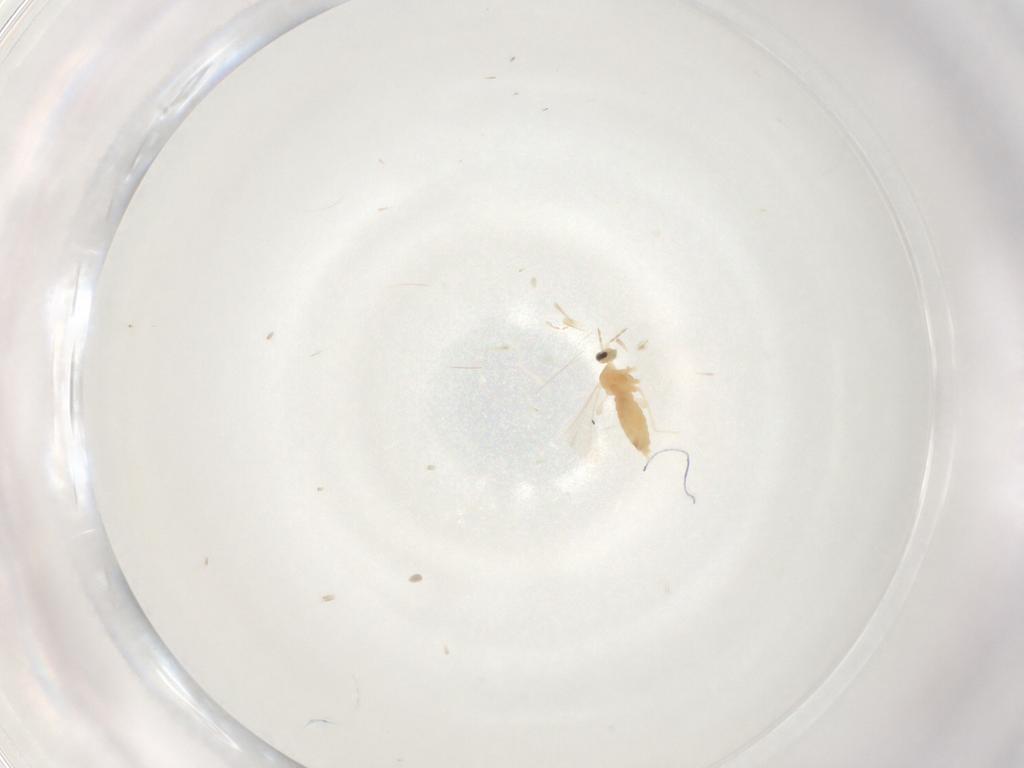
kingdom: Animalia
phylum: Arthropoda
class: Insecta
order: Diptera
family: Cecidomyiidae
